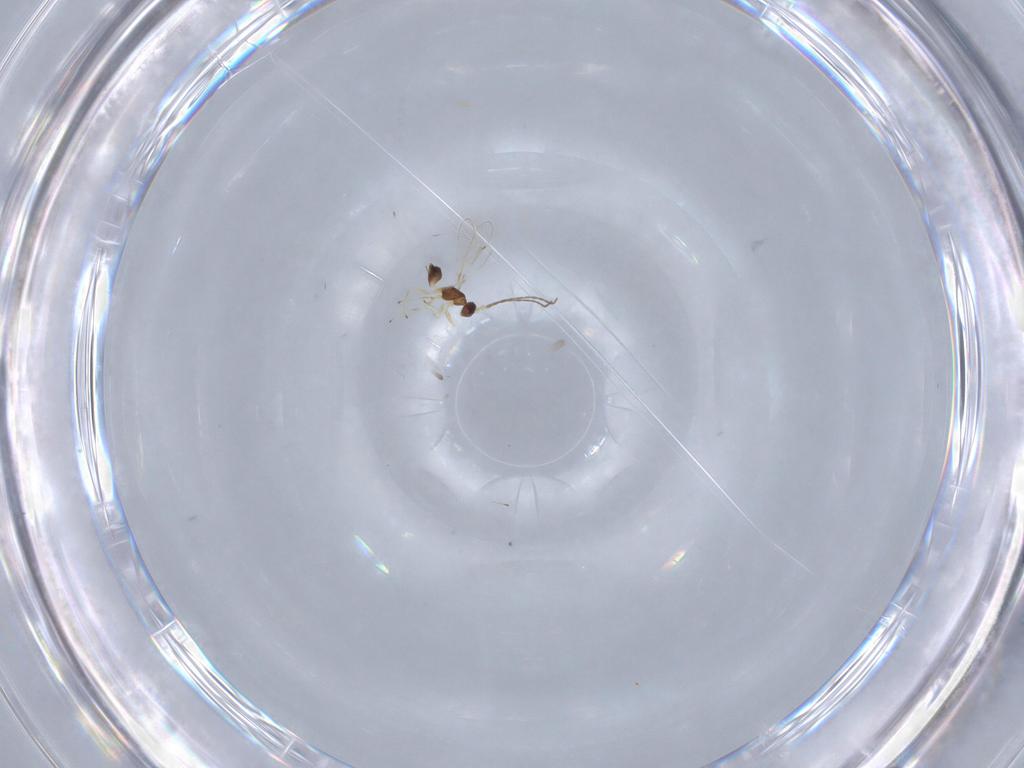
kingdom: Animalia
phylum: Arthropoda
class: Insecta
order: Hymenoptera
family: Mymaridae
